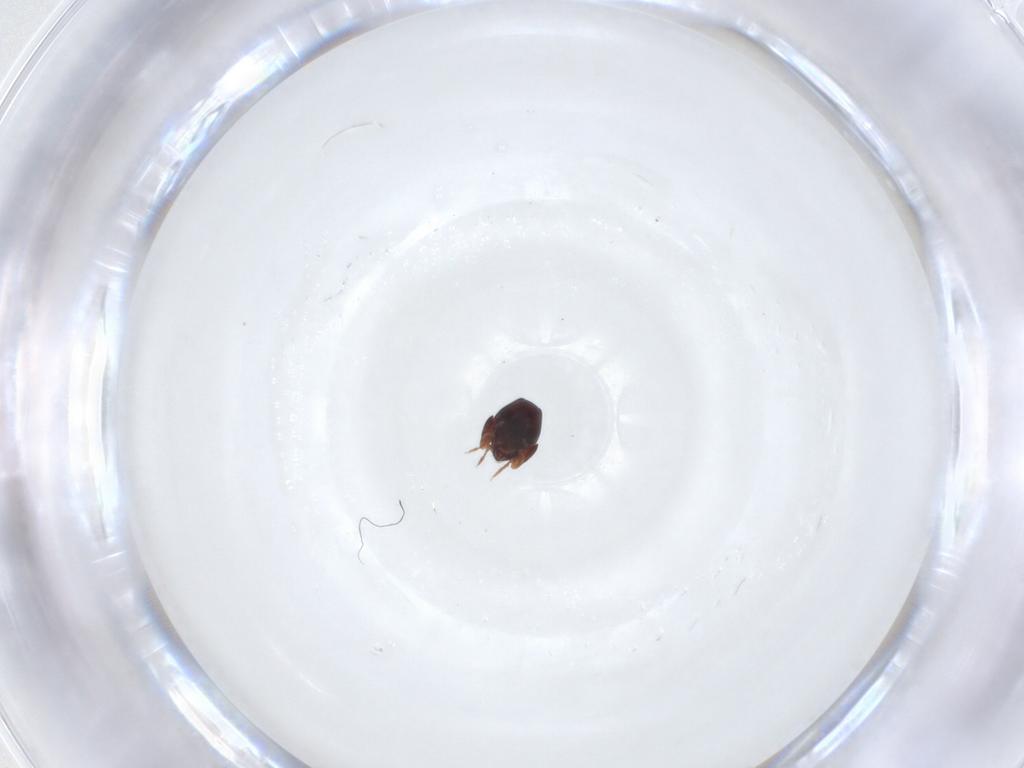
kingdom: Animalia
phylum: Arthropoda
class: Arachnida
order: Sarcoptiformes
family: Galumnidae
